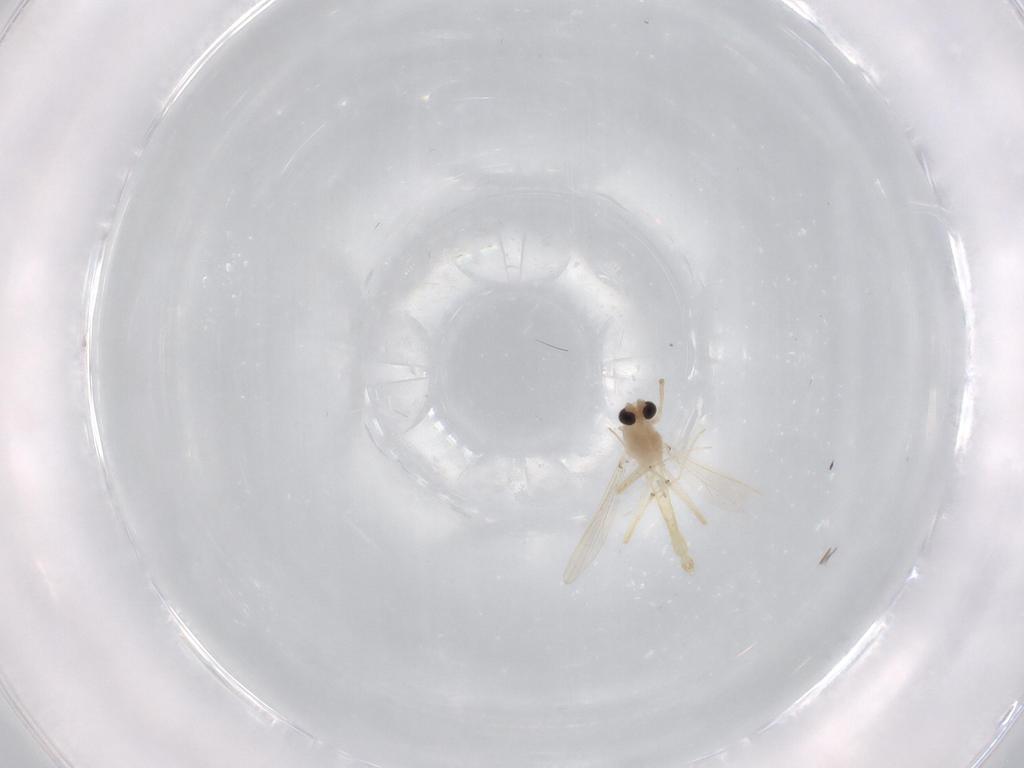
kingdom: Animalia
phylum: Arthropoda
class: Insecta
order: Diptera
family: Chironomidae
